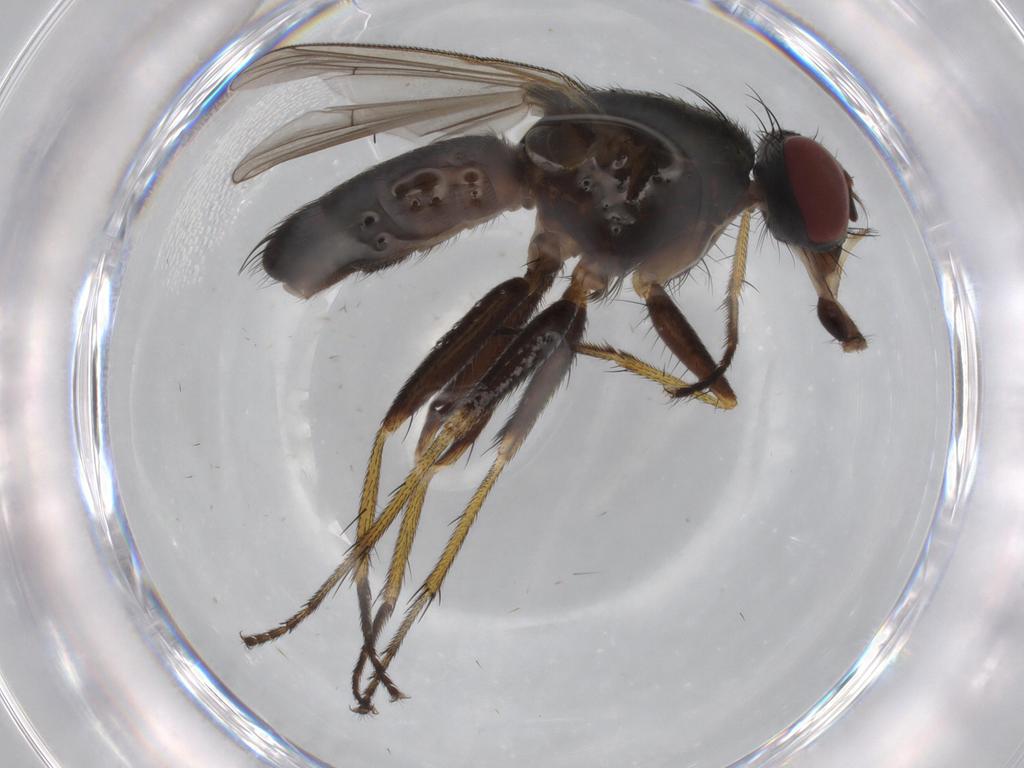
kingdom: Animalia
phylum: Arthropoda
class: Insecta
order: Diptera
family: Muscidae
